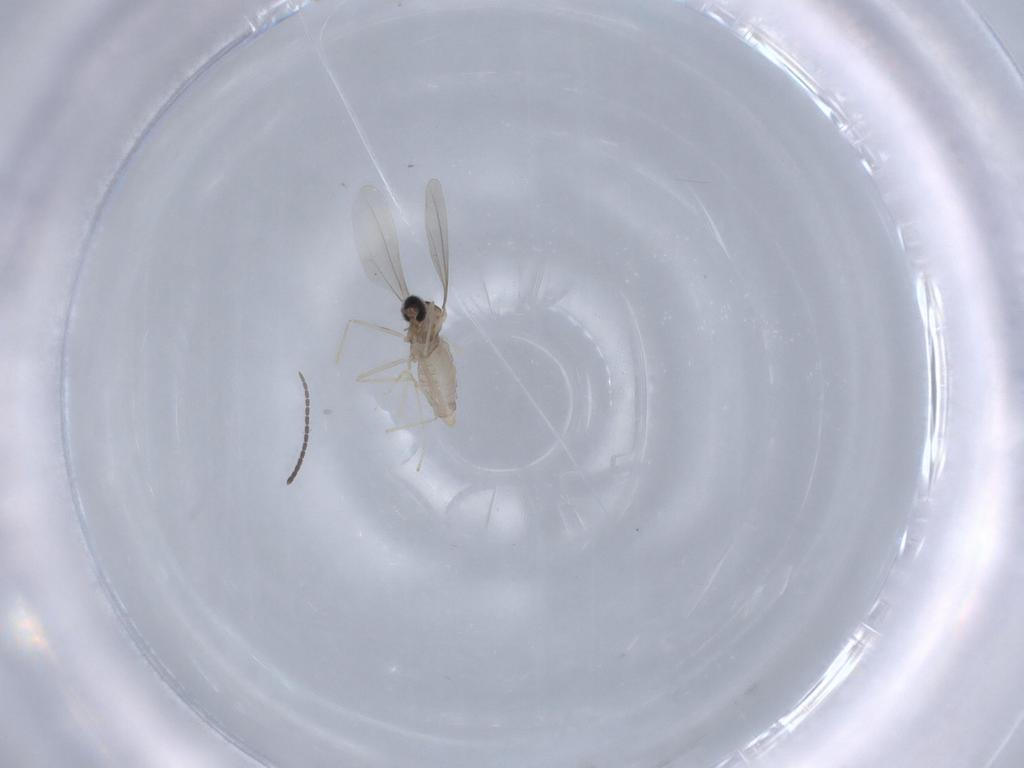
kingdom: Animalia
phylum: Arthropoda
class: Insecta
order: Diptera
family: Cecidomyiidae
